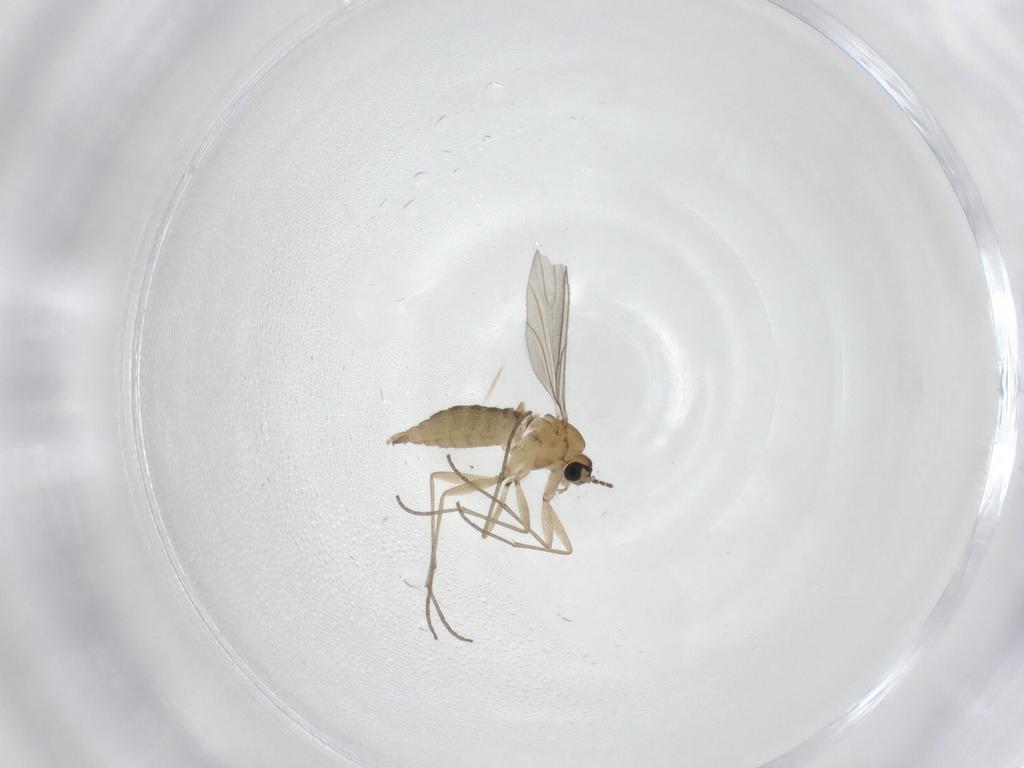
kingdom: Animalia
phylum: Arthropoda
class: Insecta
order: Diptera
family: Sciaridae
